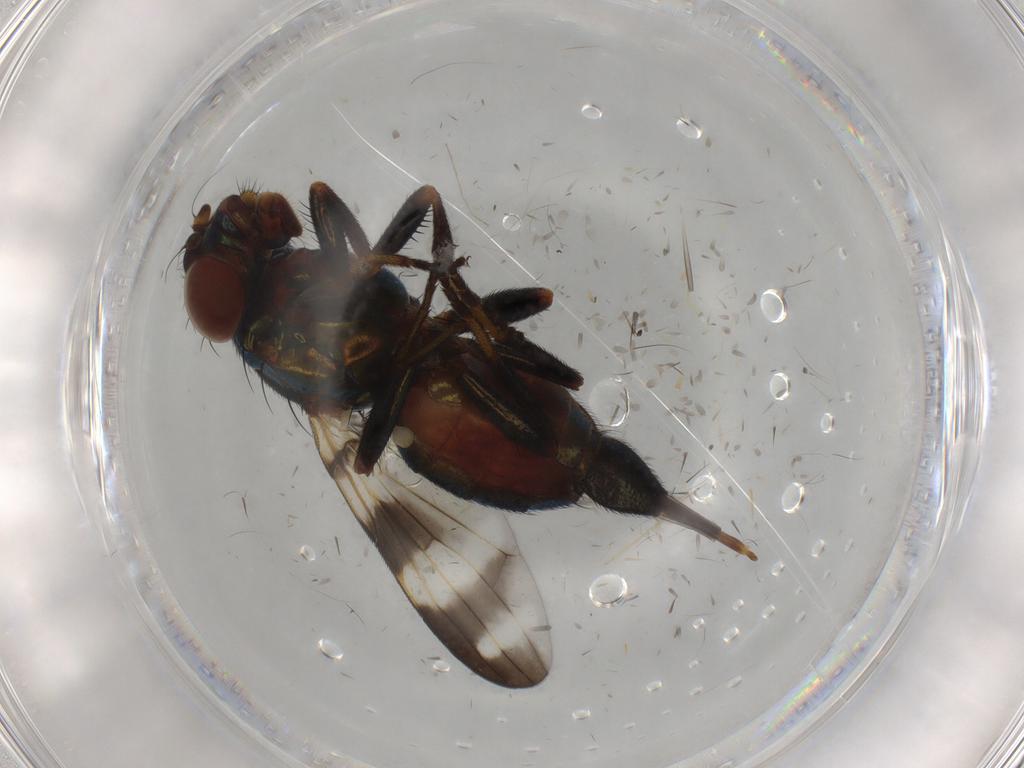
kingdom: Animalia
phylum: Arthropoda
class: Insecta
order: Diptera
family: Ulidiidae
